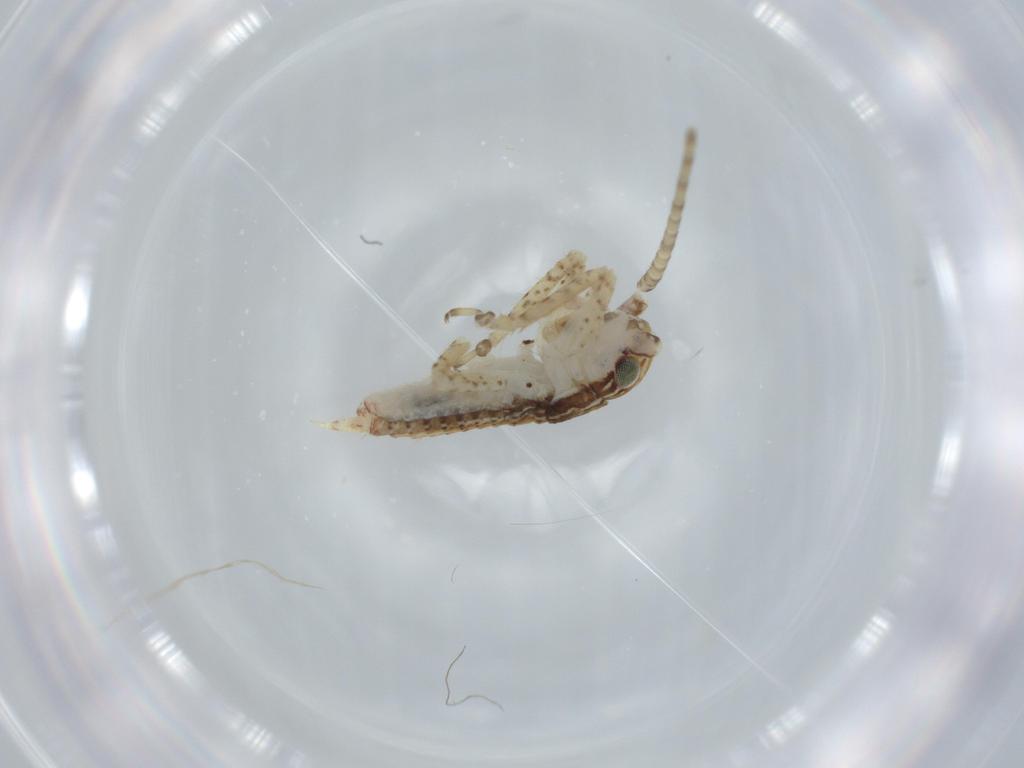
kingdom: Animalia
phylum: Arthropoda
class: Insecta
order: Orthoptera
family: Gryllidae
